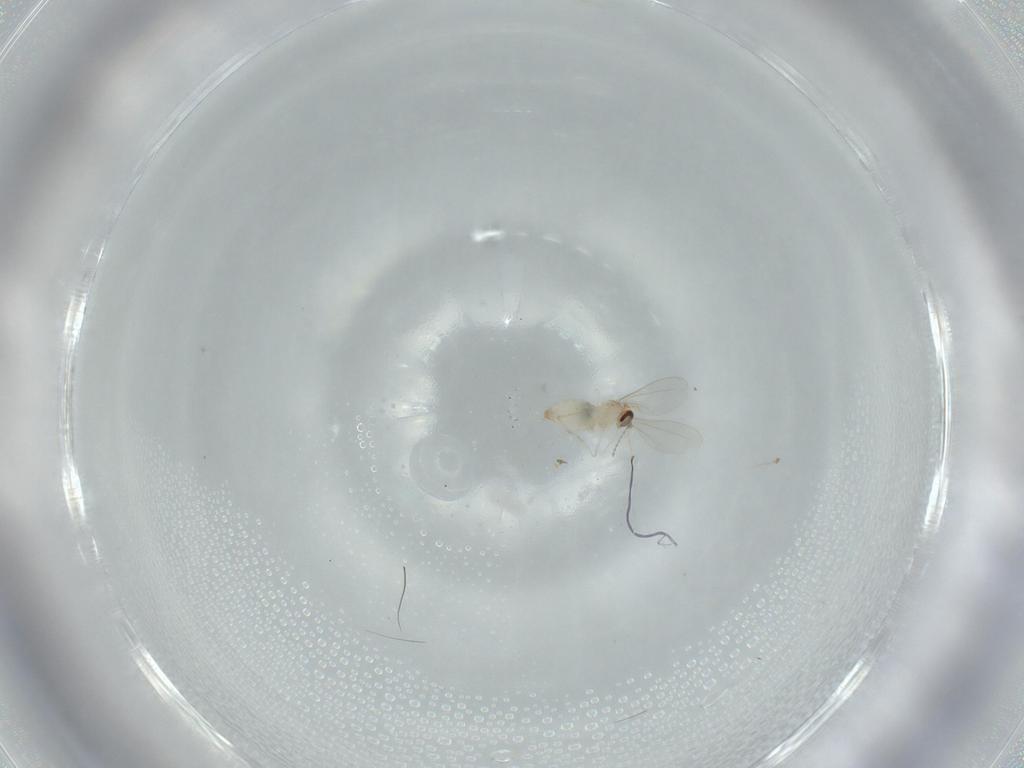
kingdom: Animalia
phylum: Arthropoda
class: Insecta
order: Diptera
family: Cecidomyiidae
